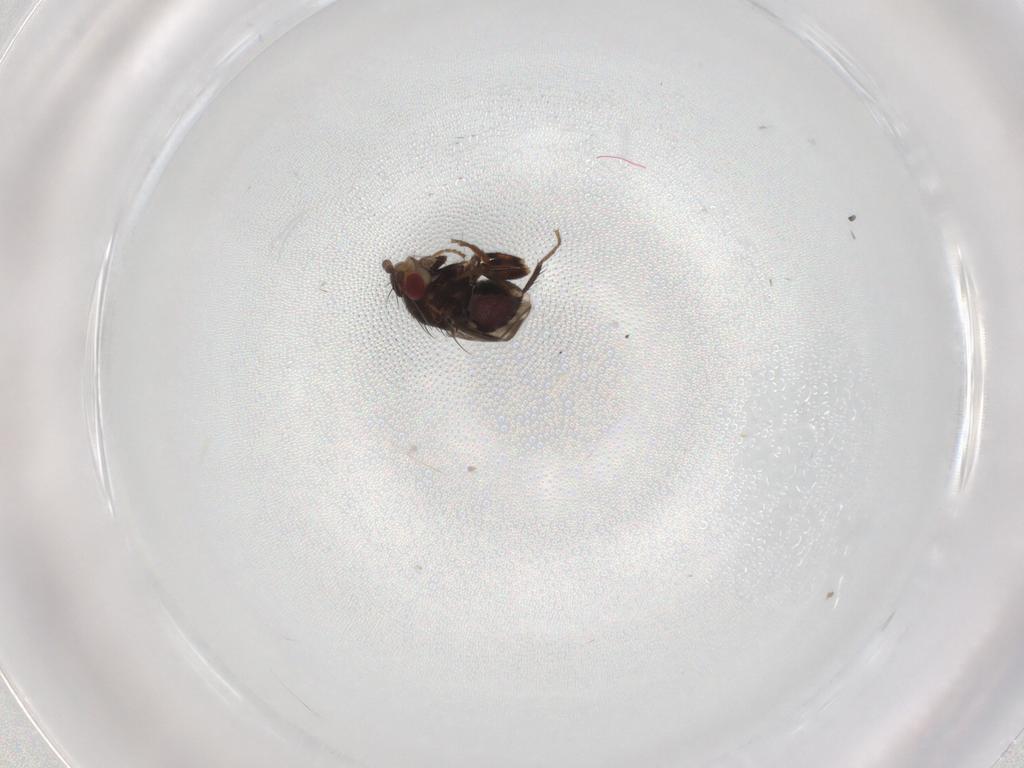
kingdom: Animalia
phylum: Arthropoda
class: Insecta
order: Diptera
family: Sphaeroceridae
